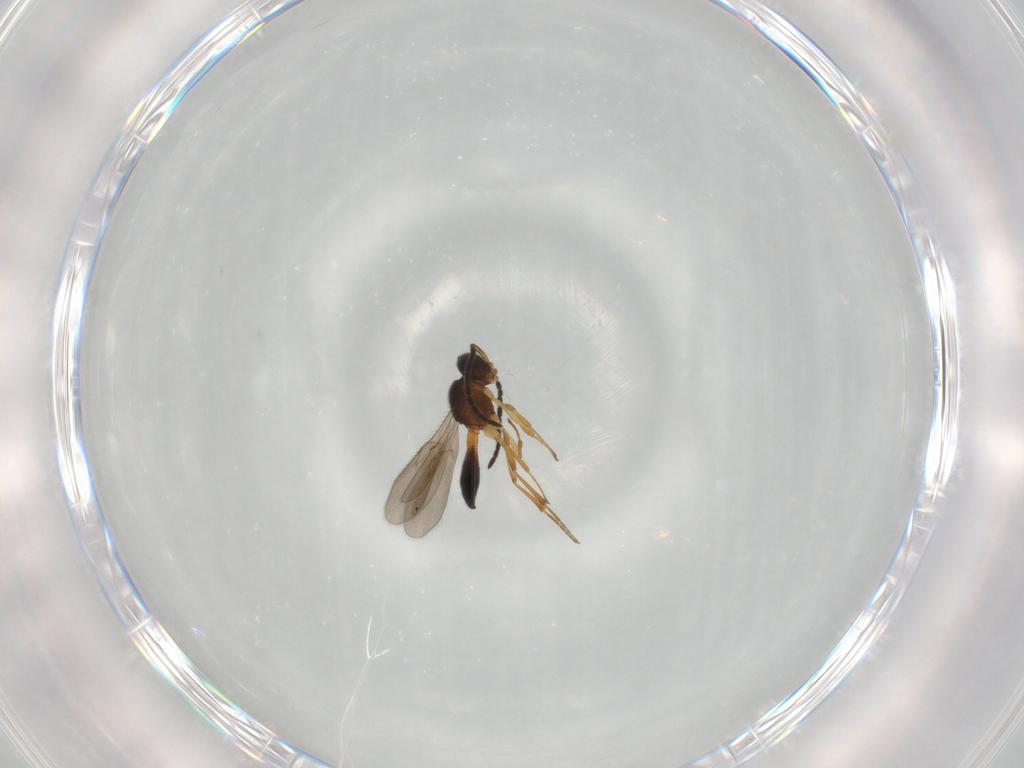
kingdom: Animalia
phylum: Arthropoda
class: Insecta
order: Hymenoptera
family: Scelionidae
